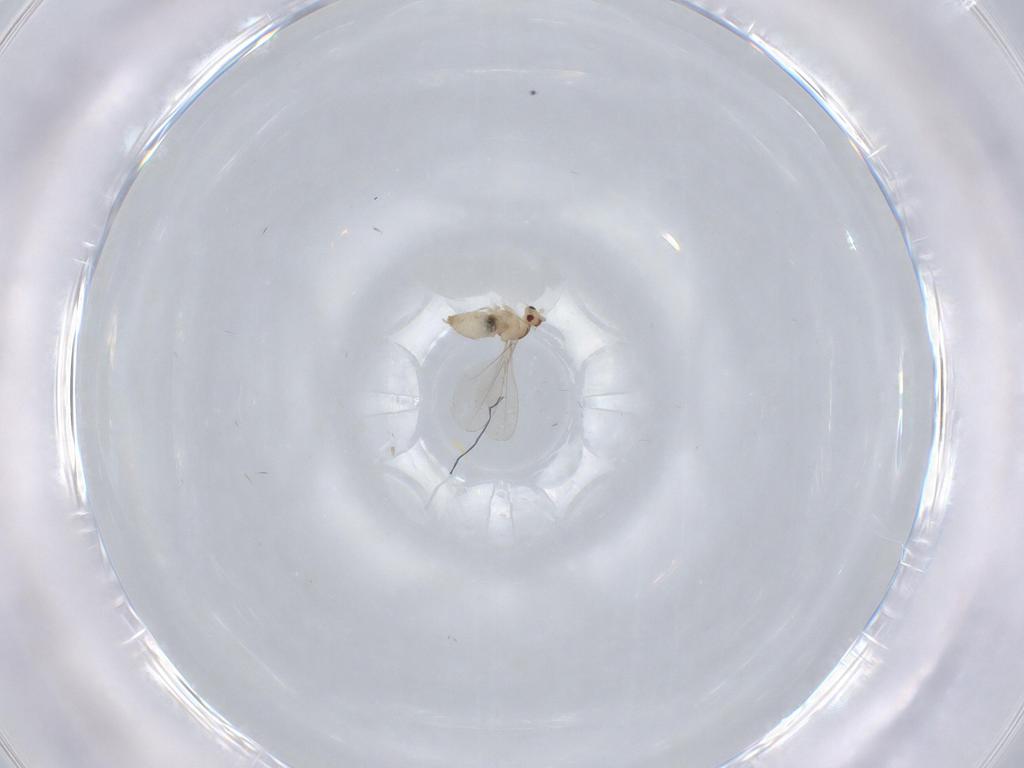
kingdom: Animalia
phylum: Arthropoda
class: Insecta
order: Diptera
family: Cecidomyiidae
